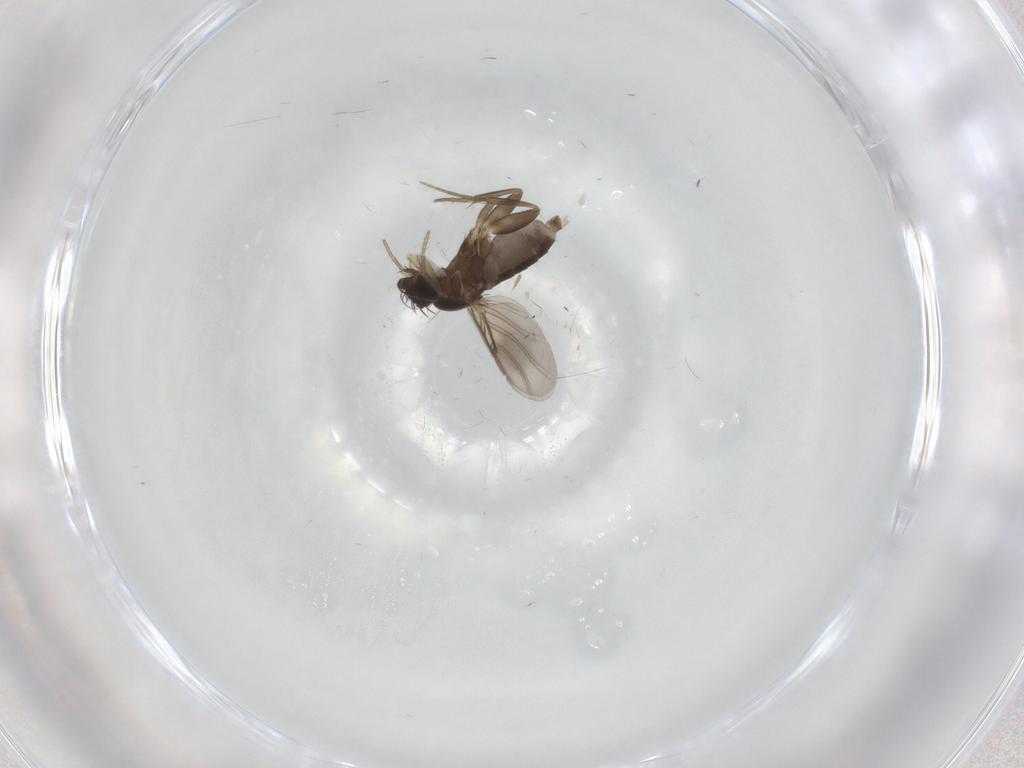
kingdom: Animalia
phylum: Arthropoda
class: Insecta
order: Diptera
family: Phoridae
